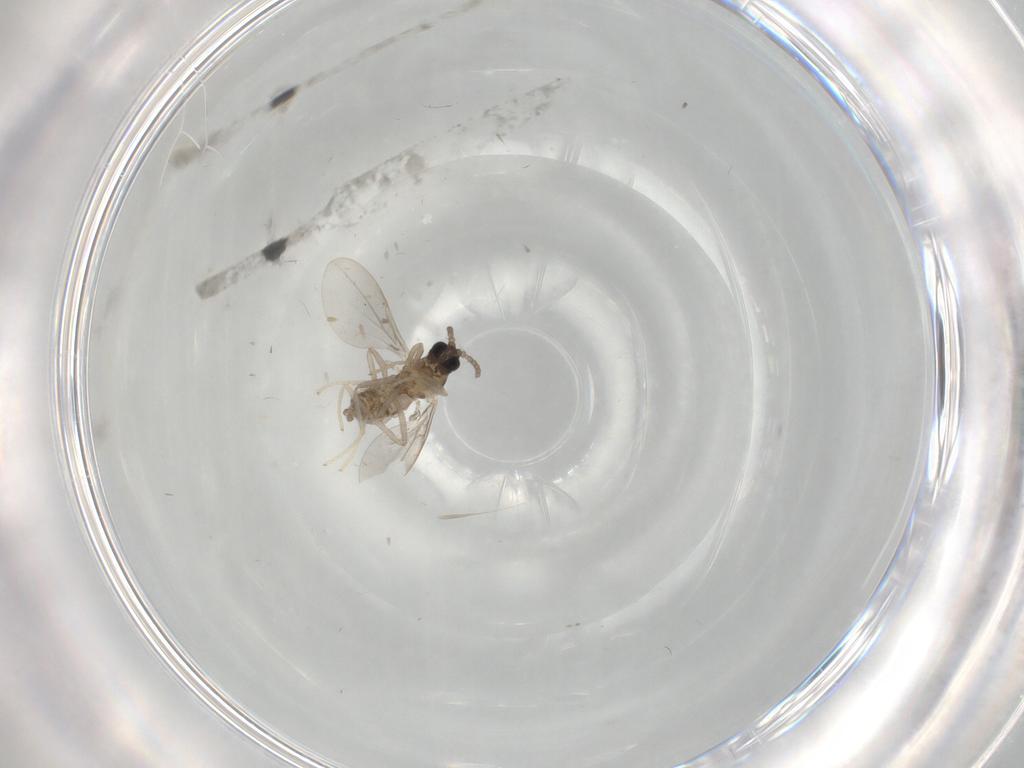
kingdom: Animalia
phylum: Arthropoda
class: Insecta
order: Diptera
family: Cecidomyiidae
